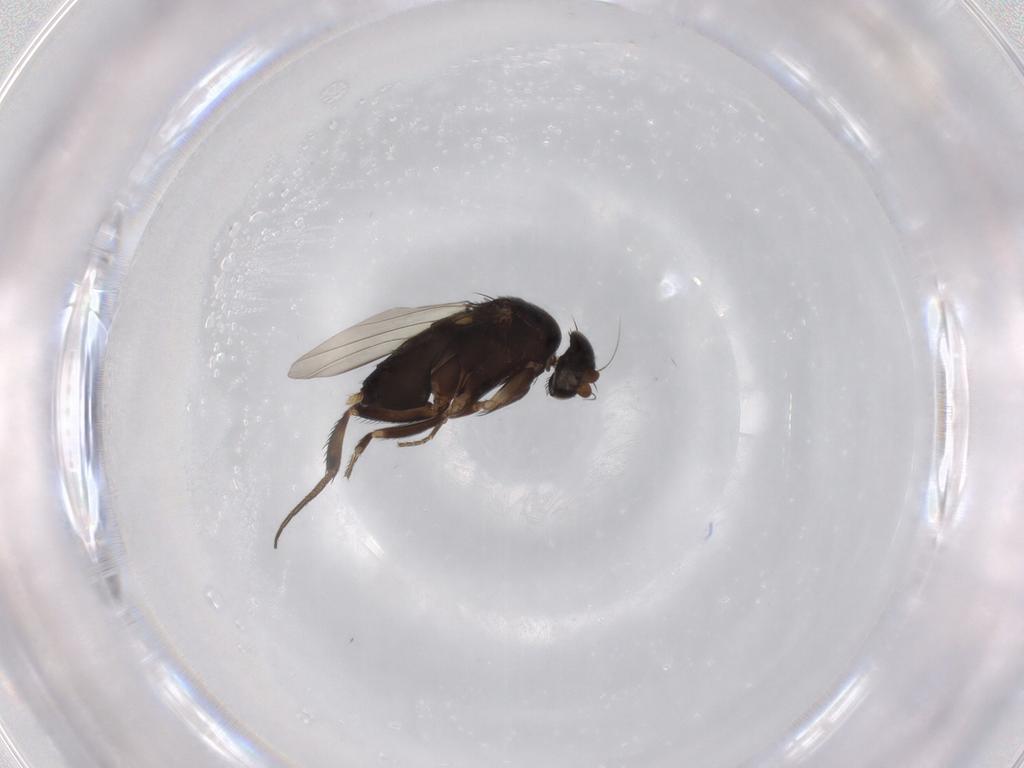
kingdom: Animalia
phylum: Arthropoda
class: Insecta
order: Diptera
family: Phoridae
